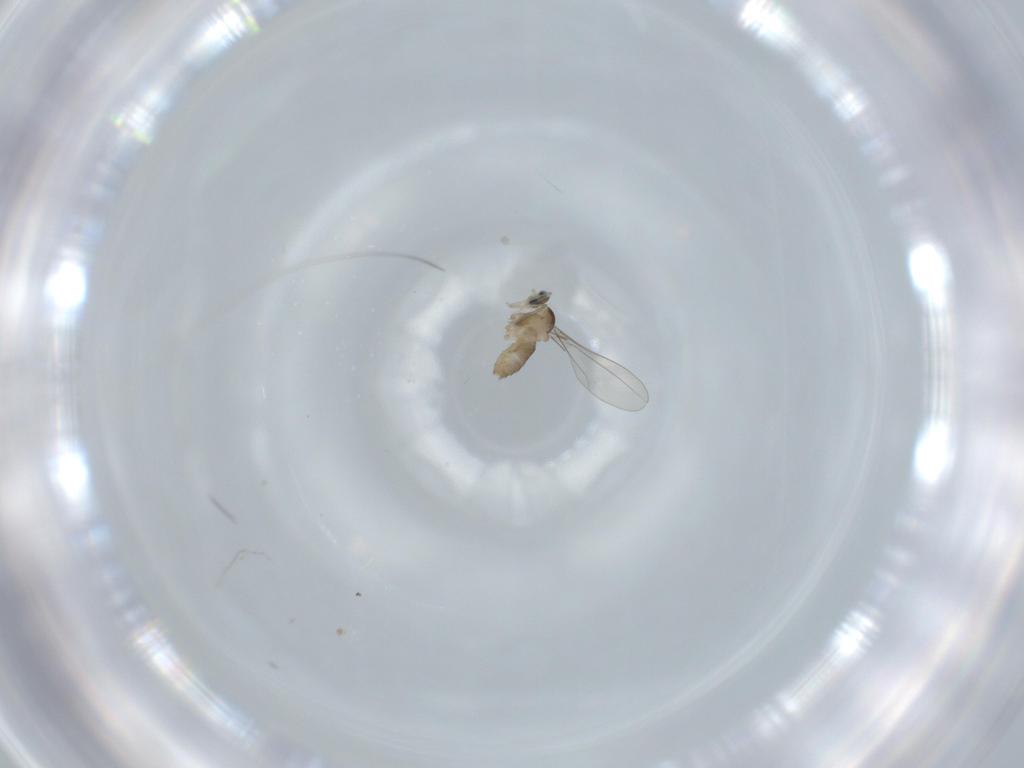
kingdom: Animalia
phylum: Arthropoda
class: Insecta
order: Diptera
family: Cecidomyiidae
